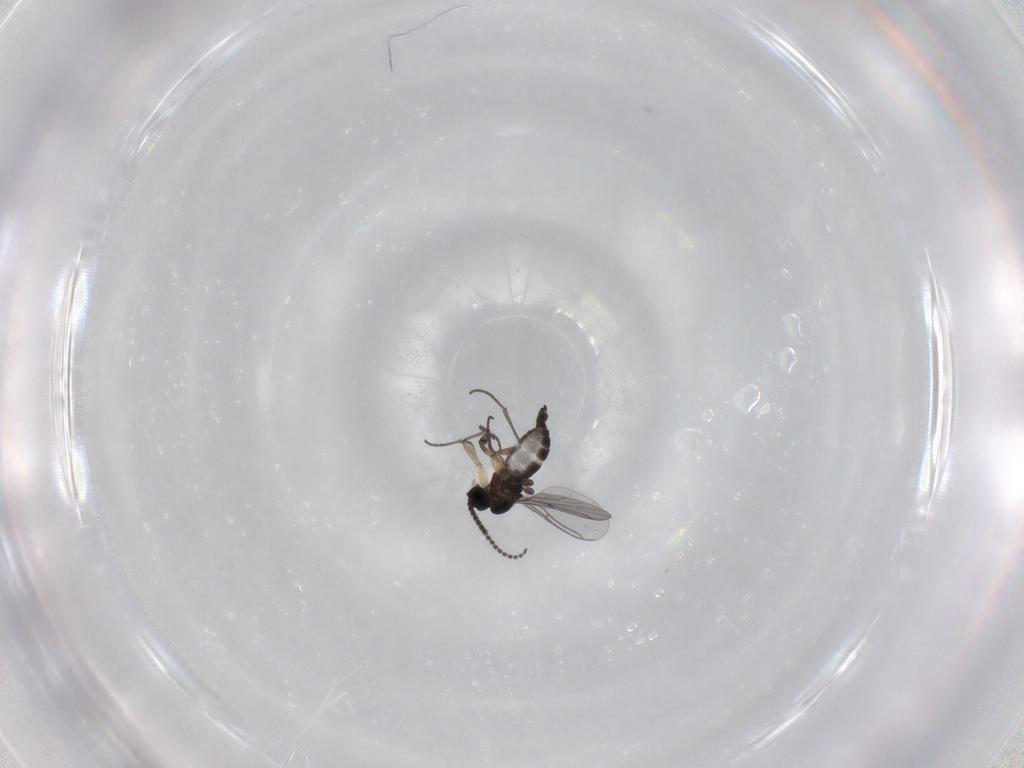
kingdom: Animalia
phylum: Arthropoda
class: Insecta
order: Diptera
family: Sciaridae
